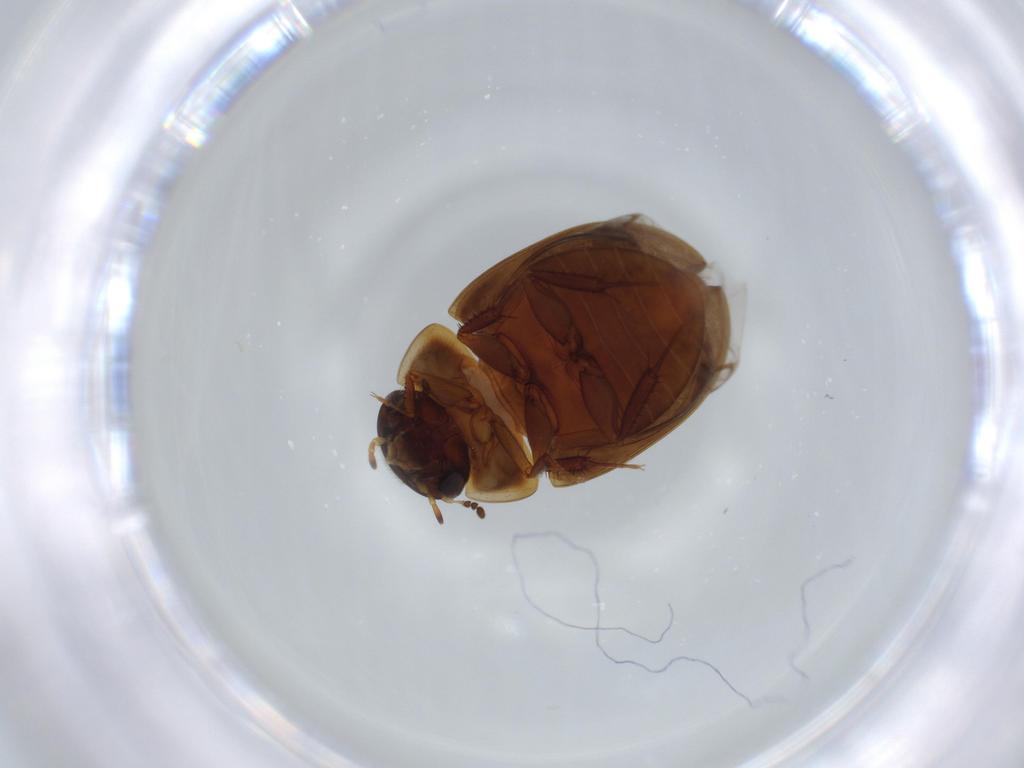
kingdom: Animalia
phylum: Arthropoda
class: Insecta
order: Coleoptera
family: Hydrophilidae
